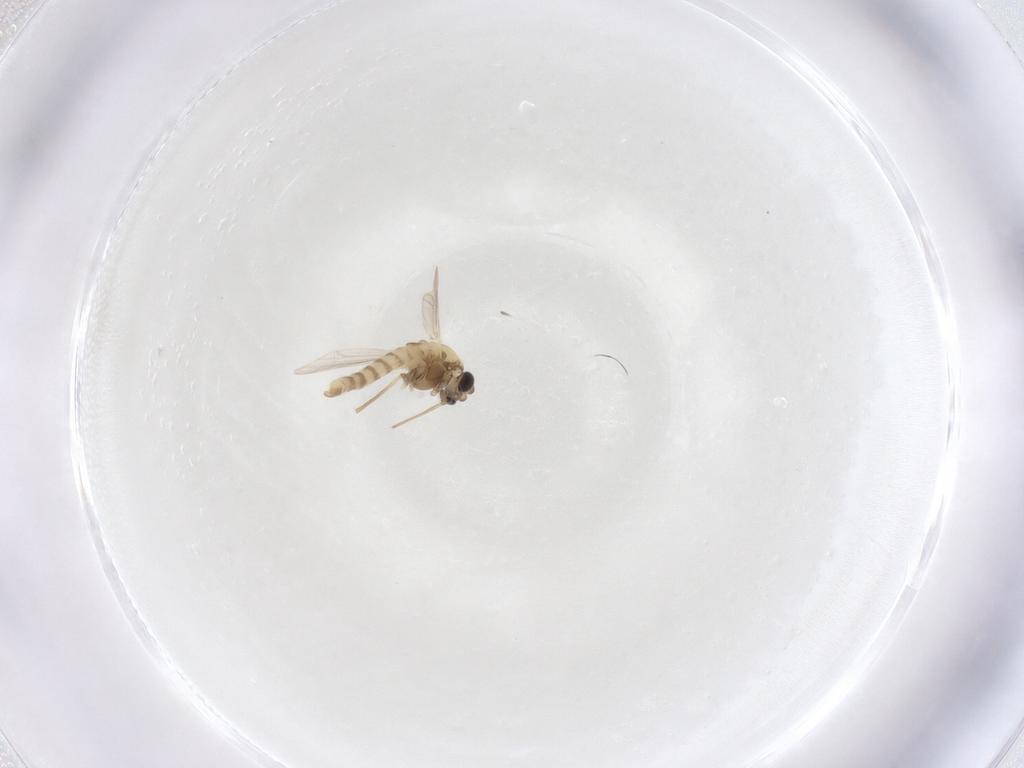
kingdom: Animalia
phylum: Arthropoda
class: Insecta
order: Diptera
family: Chironomidae
